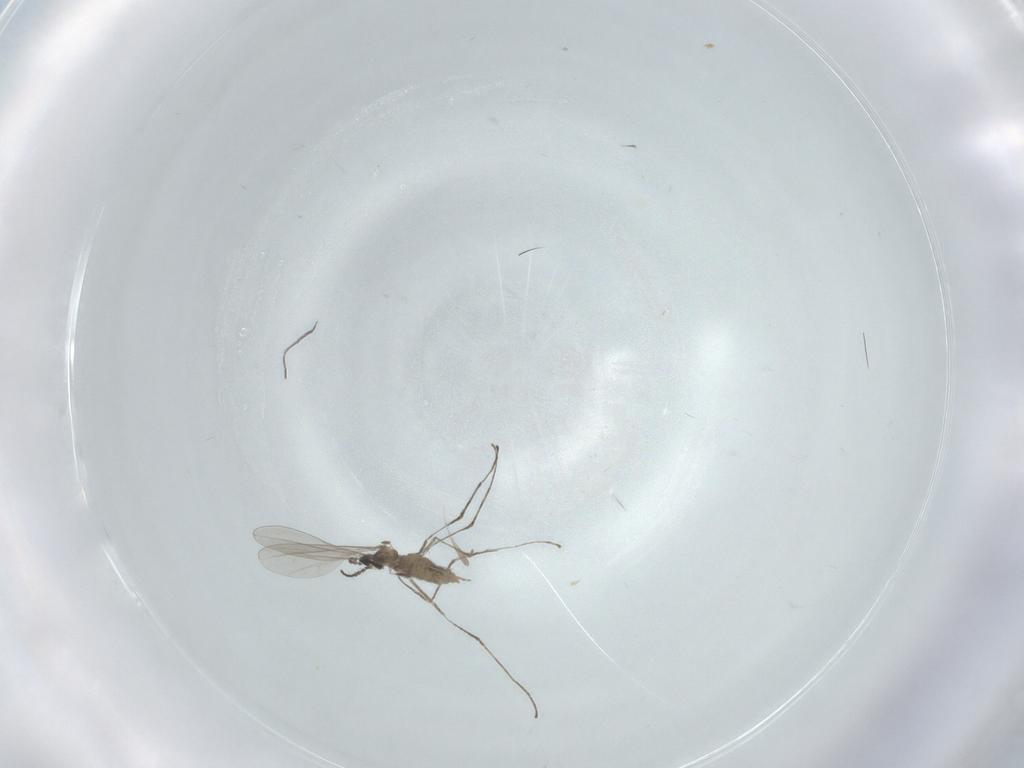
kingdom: Animalia
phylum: Arthropoda
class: Insecta
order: Diptera
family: Cecidomyiidae
